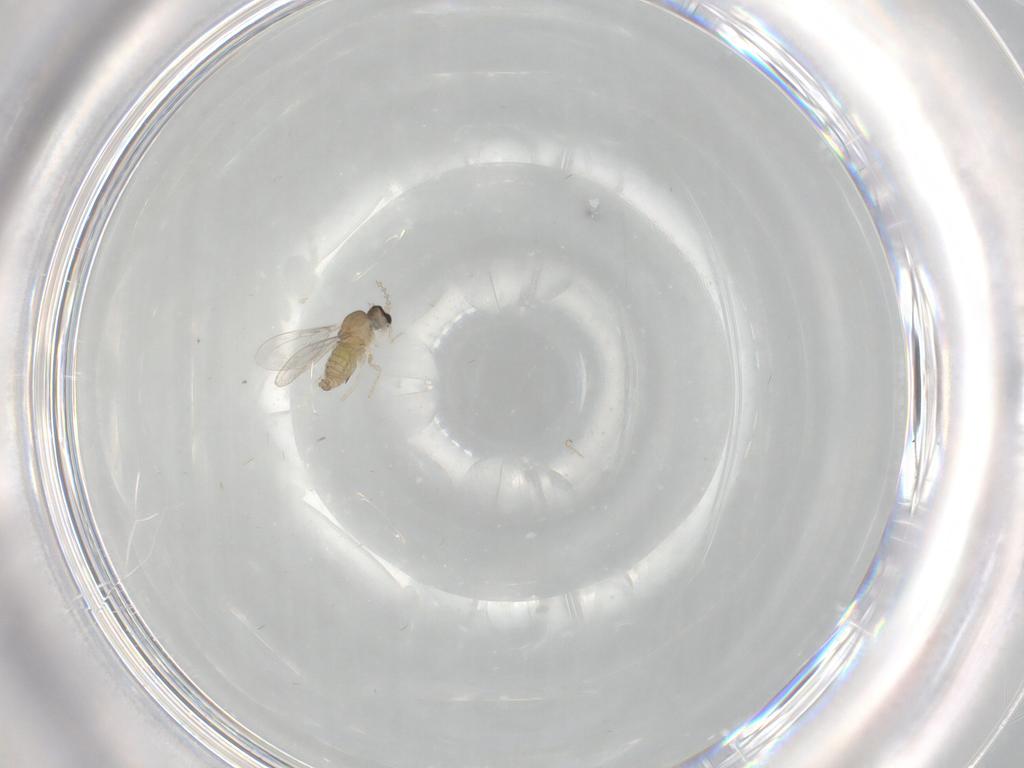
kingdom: Animalia
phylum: Arthropoda
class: Insecta
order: Diptera
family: Cecidomyiidae
